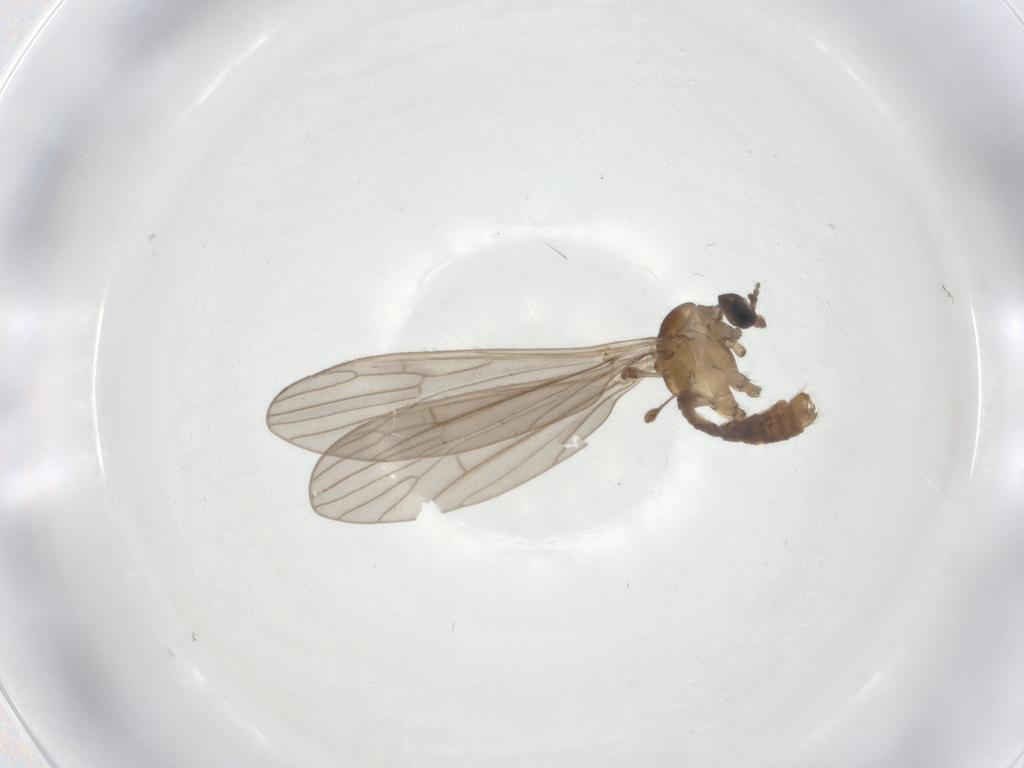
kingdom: Animalia
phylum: Arthropoda
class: Insecta
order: Diptera
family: Limoniidae
